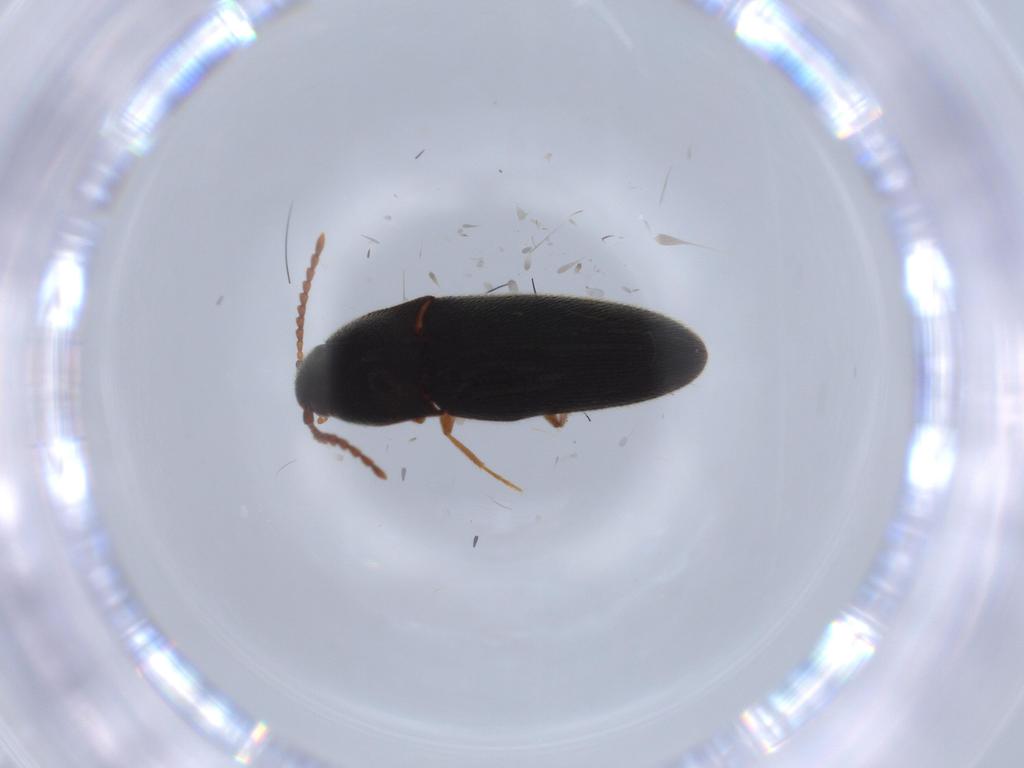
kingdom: Animalia
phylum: Arthropoda
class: Insecta
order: Coleoptera
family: Elateridae
